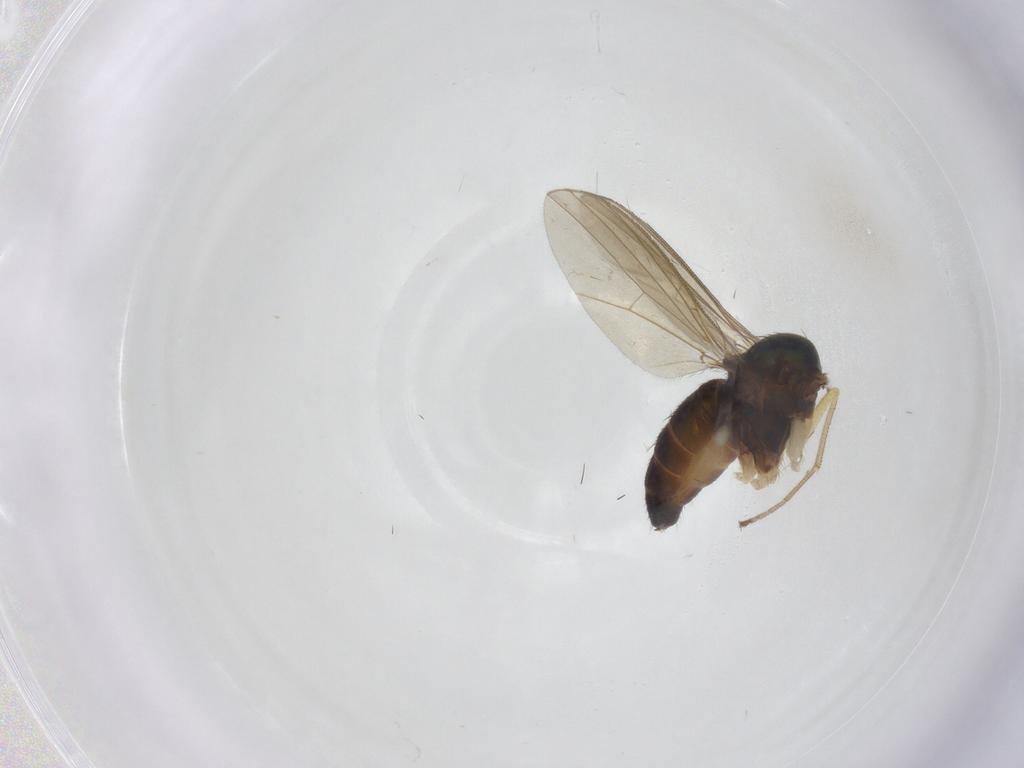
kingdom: Animalia
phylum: Arthropoda
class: Insecta
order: Diptera
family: Dolichopodidae
